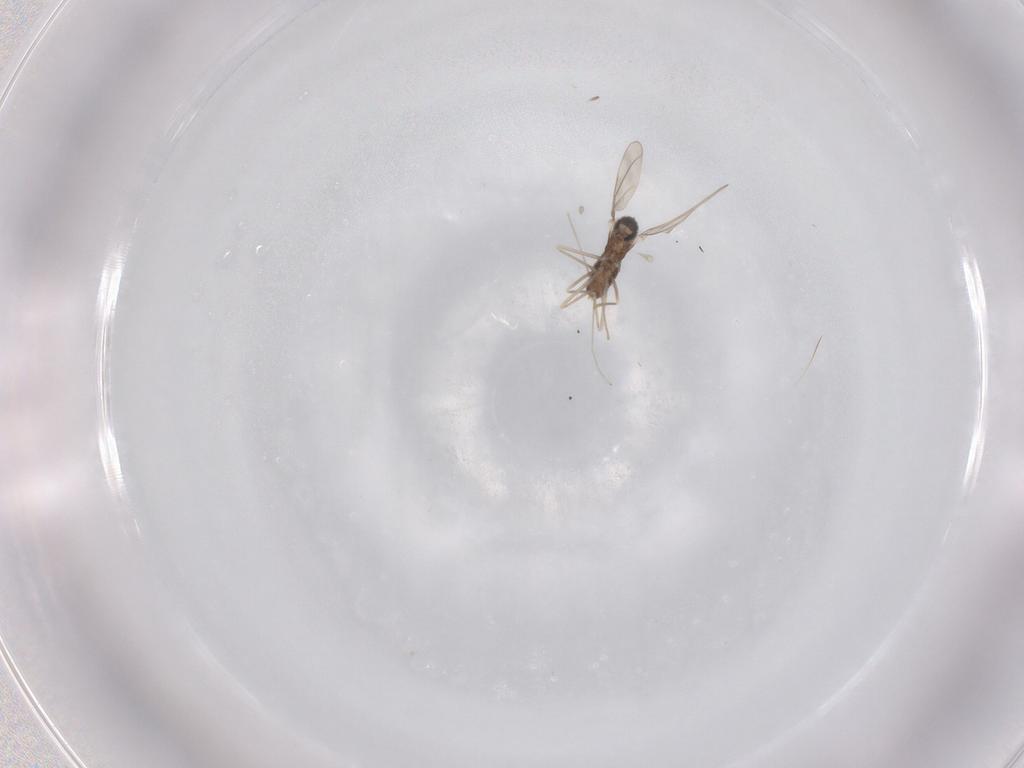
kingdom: Animalia
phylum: Arthropoda
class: Insecta
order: Diptera
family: Cecidomyiidae
